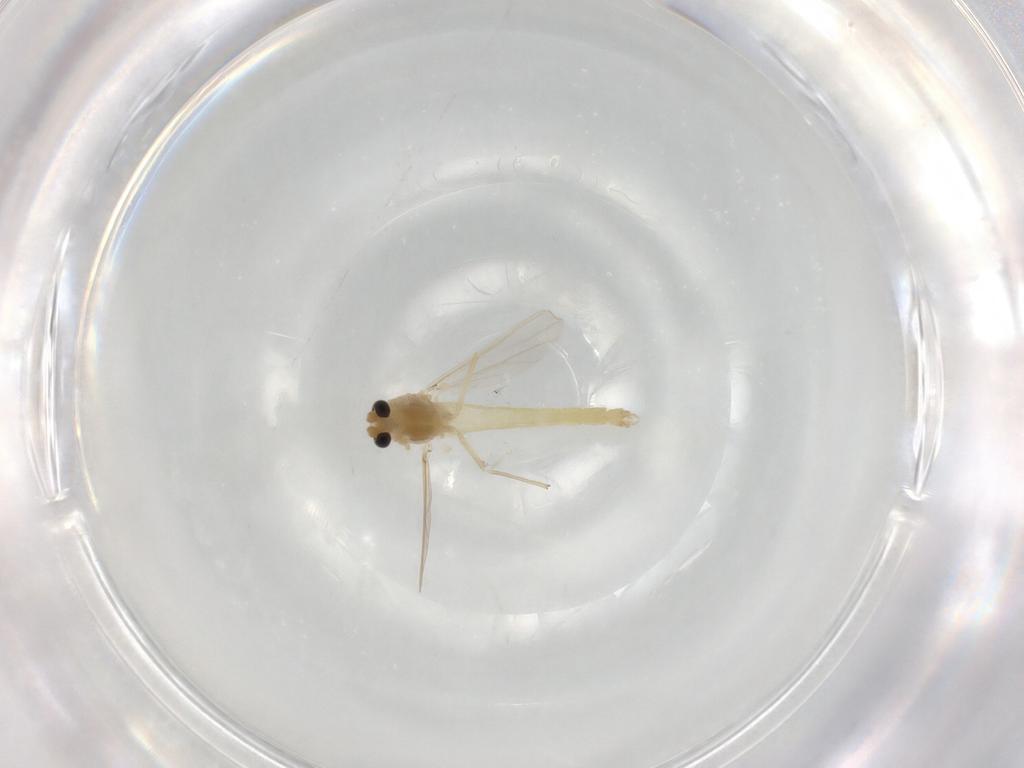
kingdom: Animalia
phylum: Arthropoda
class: Insecta
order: Diptera
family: Chironomidae
